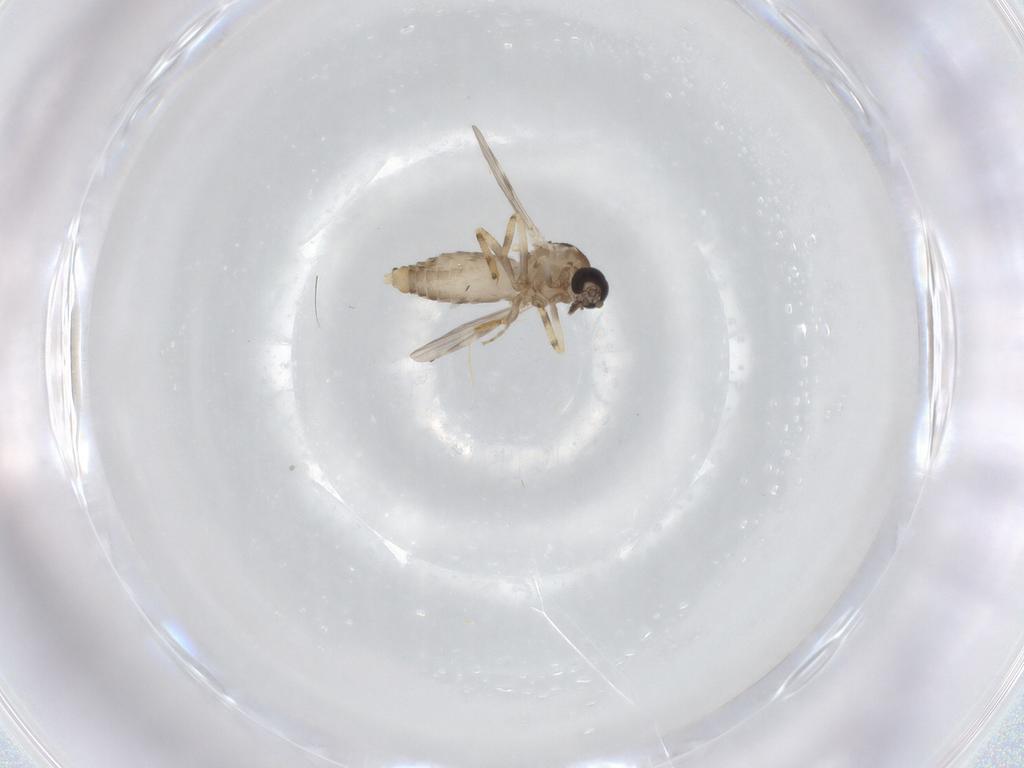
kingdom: Animalia
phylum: Arthropoda
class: Insecta
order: Diptera
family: Ceratopogonidae
